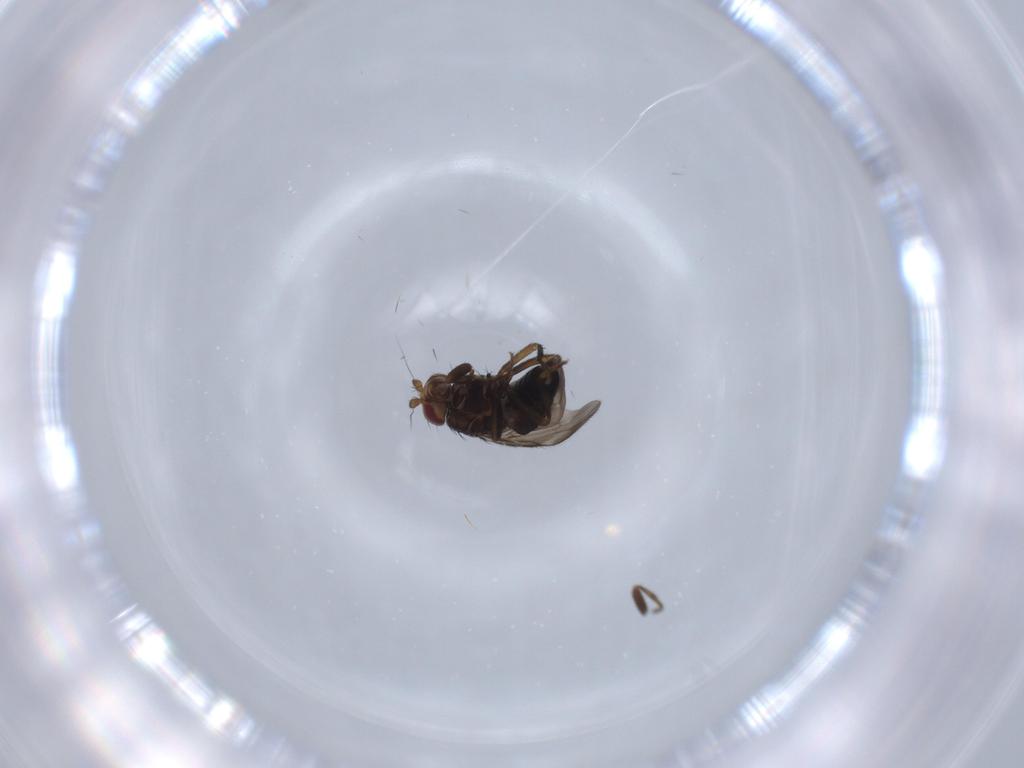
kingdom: Animalia
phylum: Arthropoda
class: Insecta
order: Diptera
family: Sphaeroceridae
